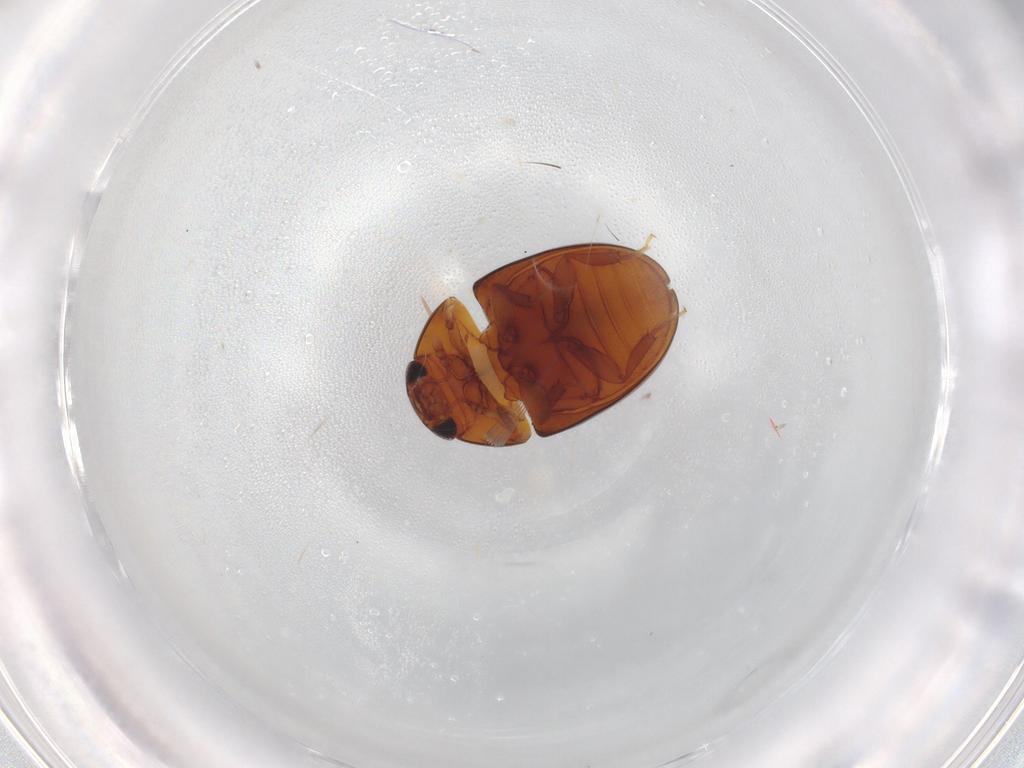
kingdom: Animalia
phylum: Arthropoda
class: Insecta
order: Coleoptera
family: Phalacridae
